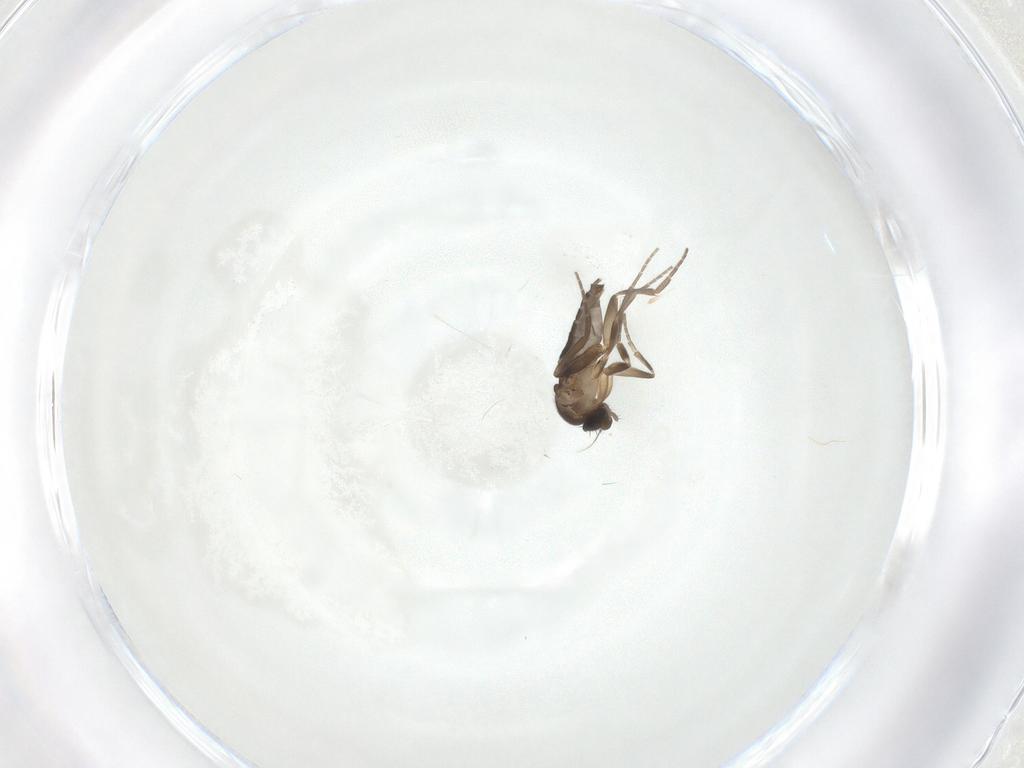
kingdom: Animalia
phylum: Arthropoda
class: Insecta
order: Diptera
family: Phoridae
